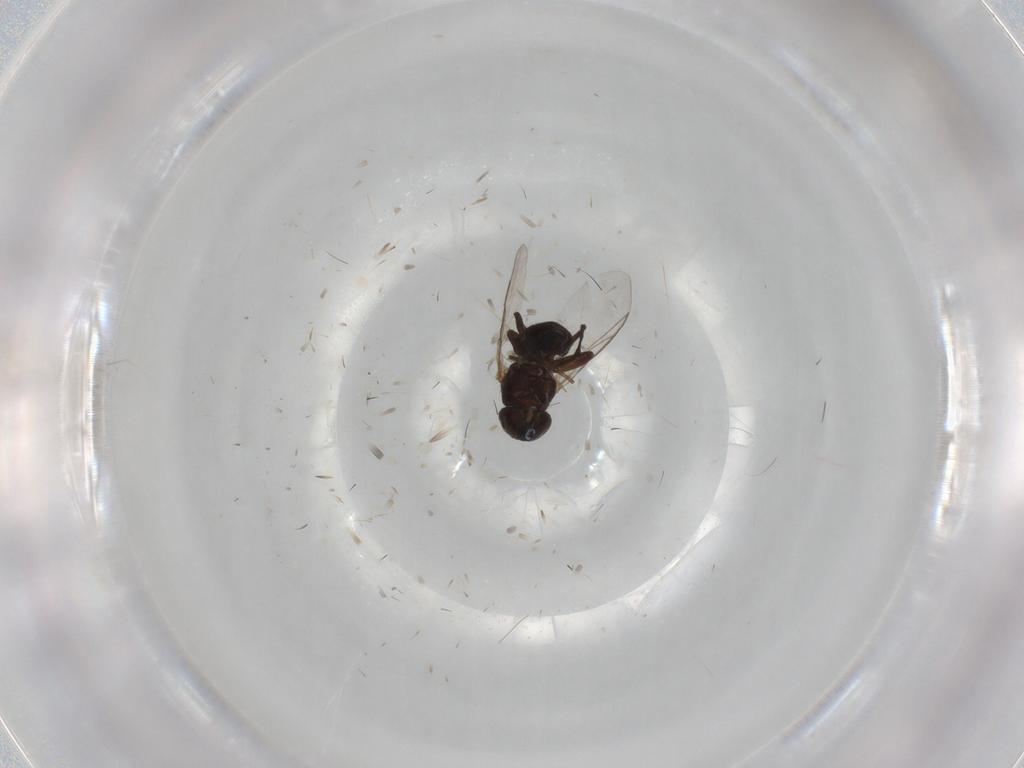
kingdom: Animalia
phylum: Arthropoda
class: Insecta
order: Diptera
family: Glossinidae
